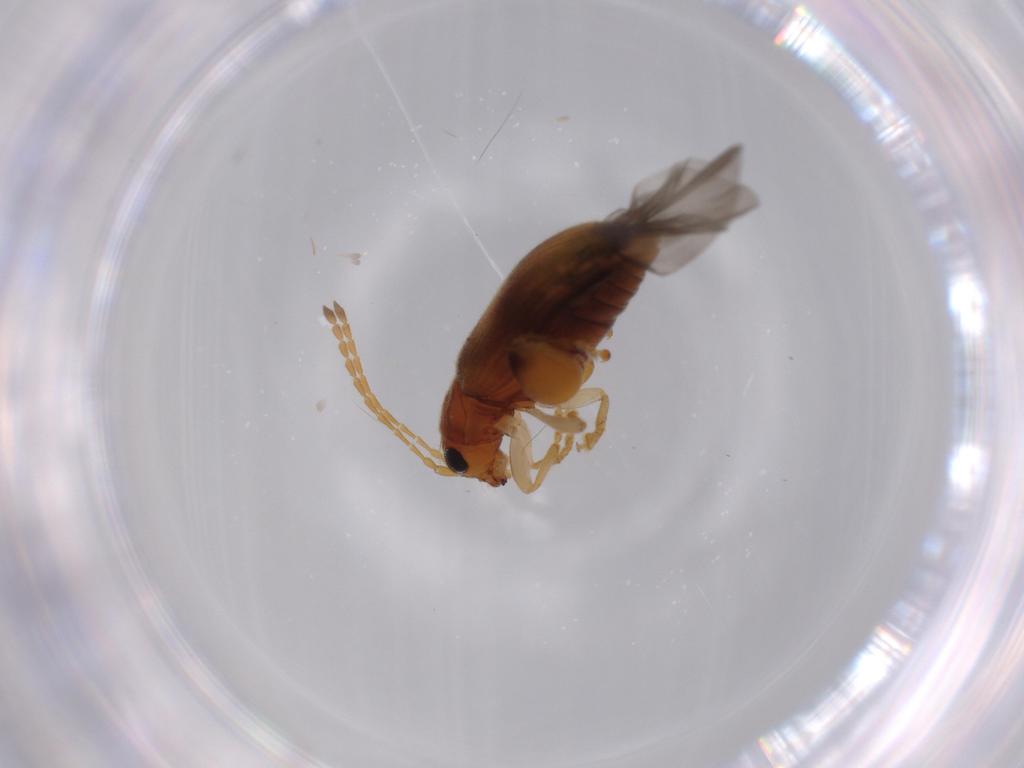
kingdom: Animalia
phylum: Arthropoda
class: Insecta
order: Coleoptera
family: Chrysomelidae
